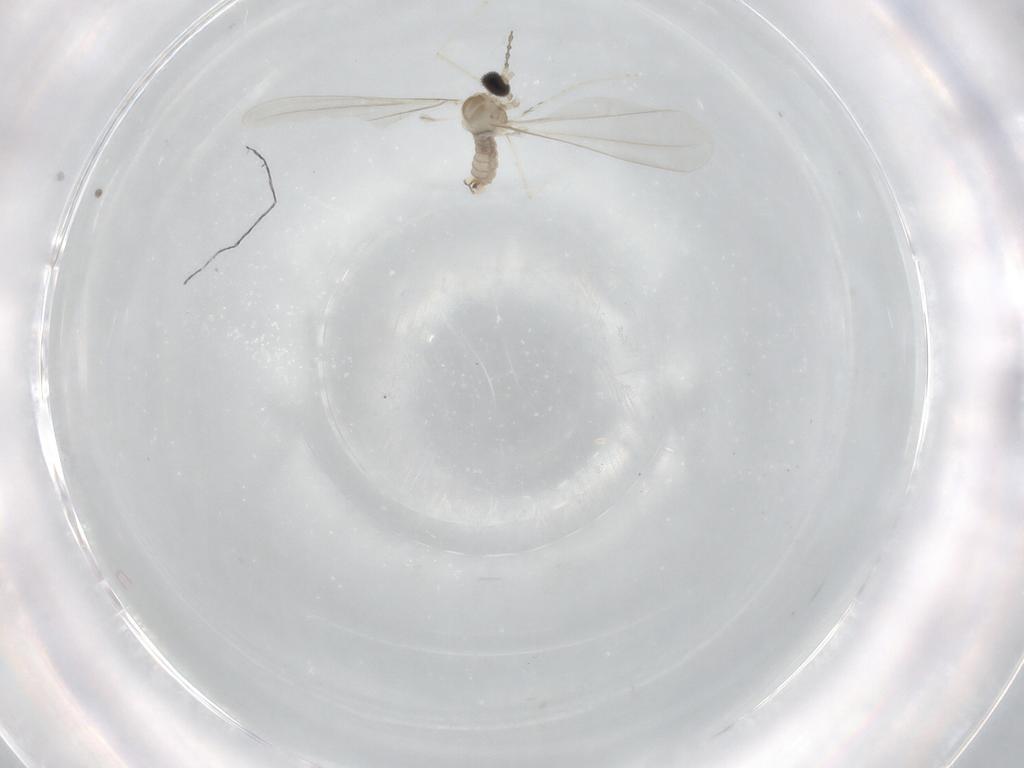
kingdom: Animalia
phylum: Arthropoda
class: Insecta
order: Diptera
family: Cecidomyiidae
